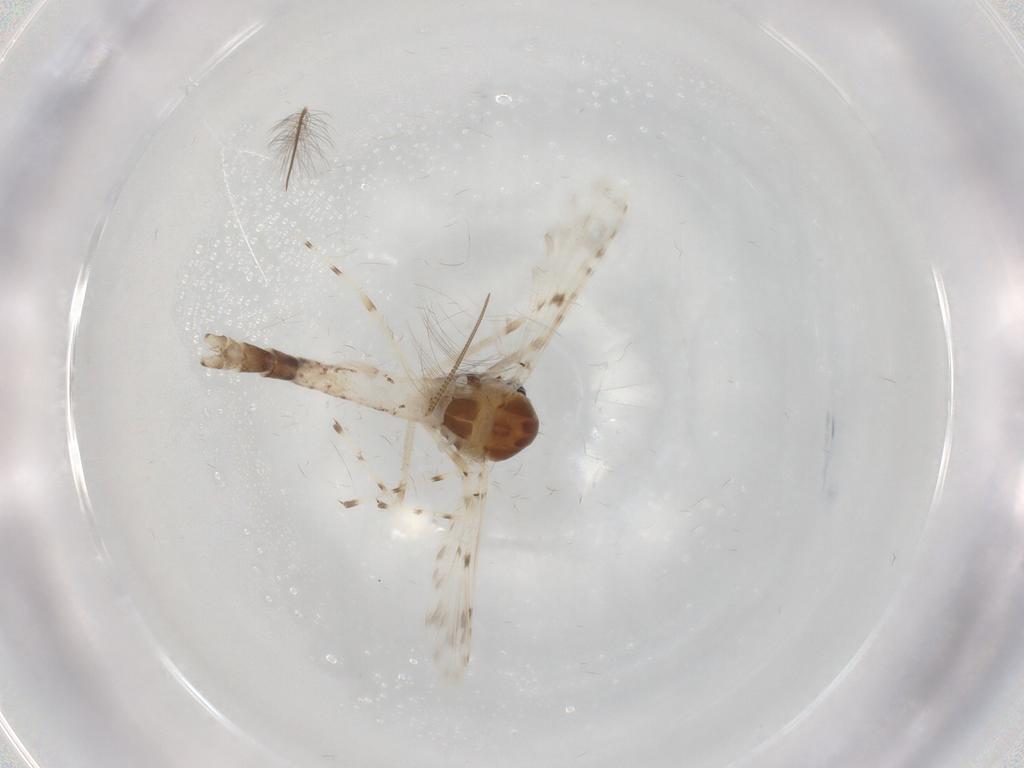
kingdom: Animalia
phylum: Arthropoda
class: Insecta
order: Diptera
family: Chironomidae
